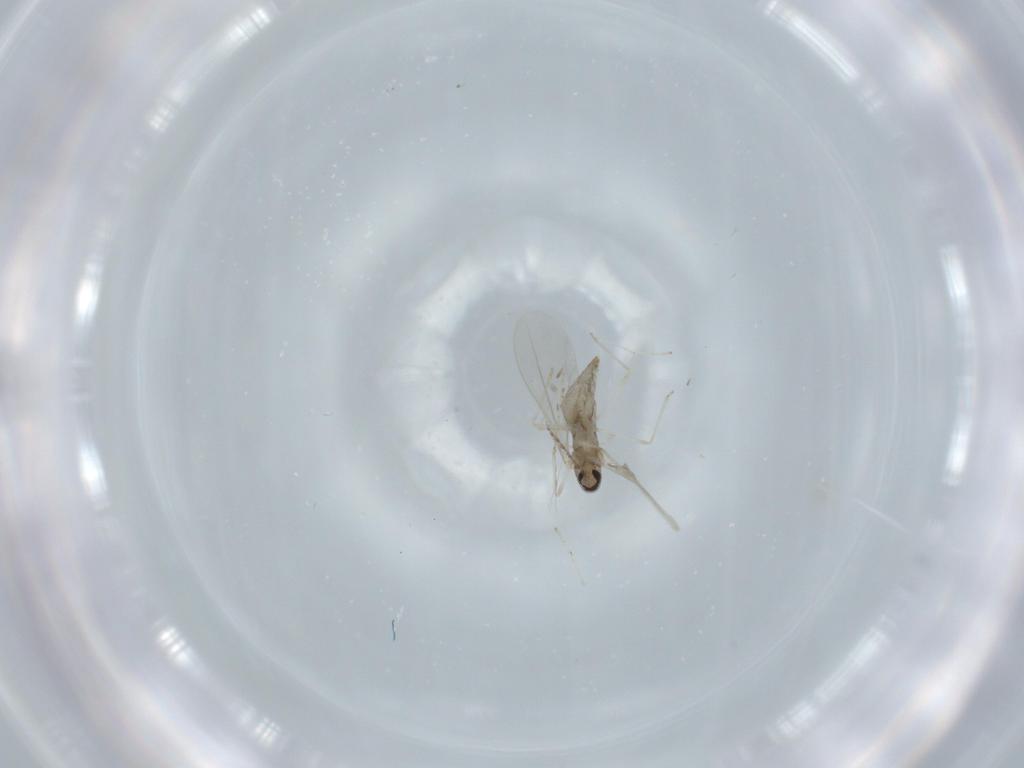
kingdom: Animalia
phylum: Arthropoda
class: Insecta
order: Diptera
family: Cecidomyiidae
